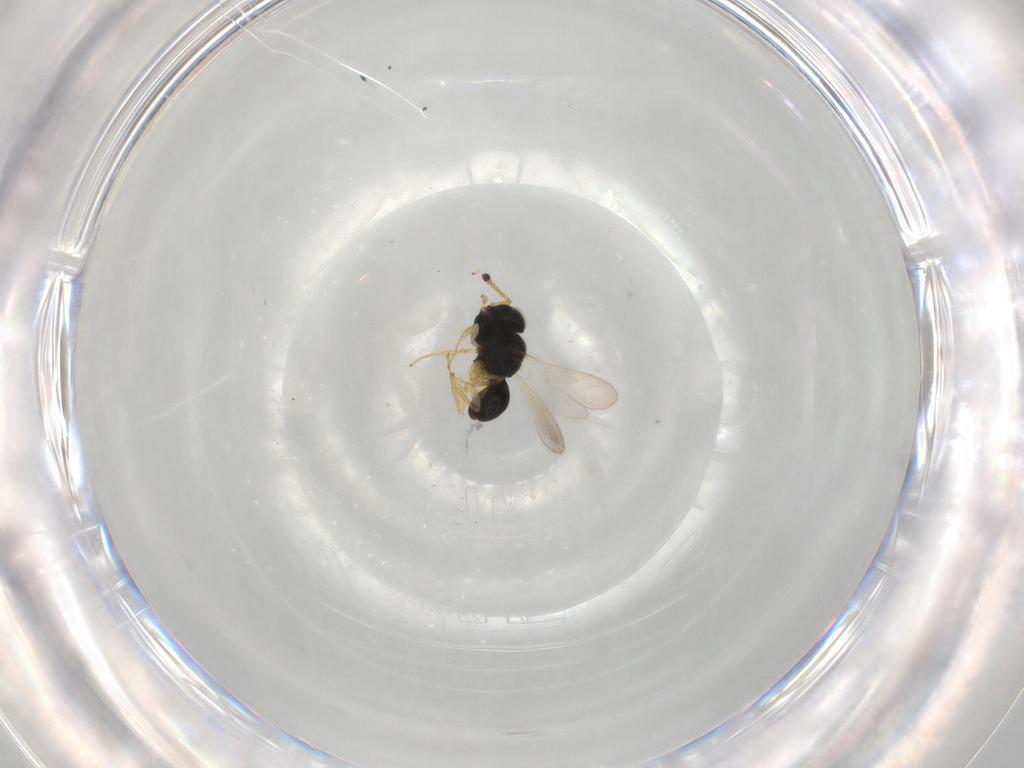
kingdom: Animalia
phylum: Arthropoda
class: Insecta
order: Hymenoptera
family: Formicidae
